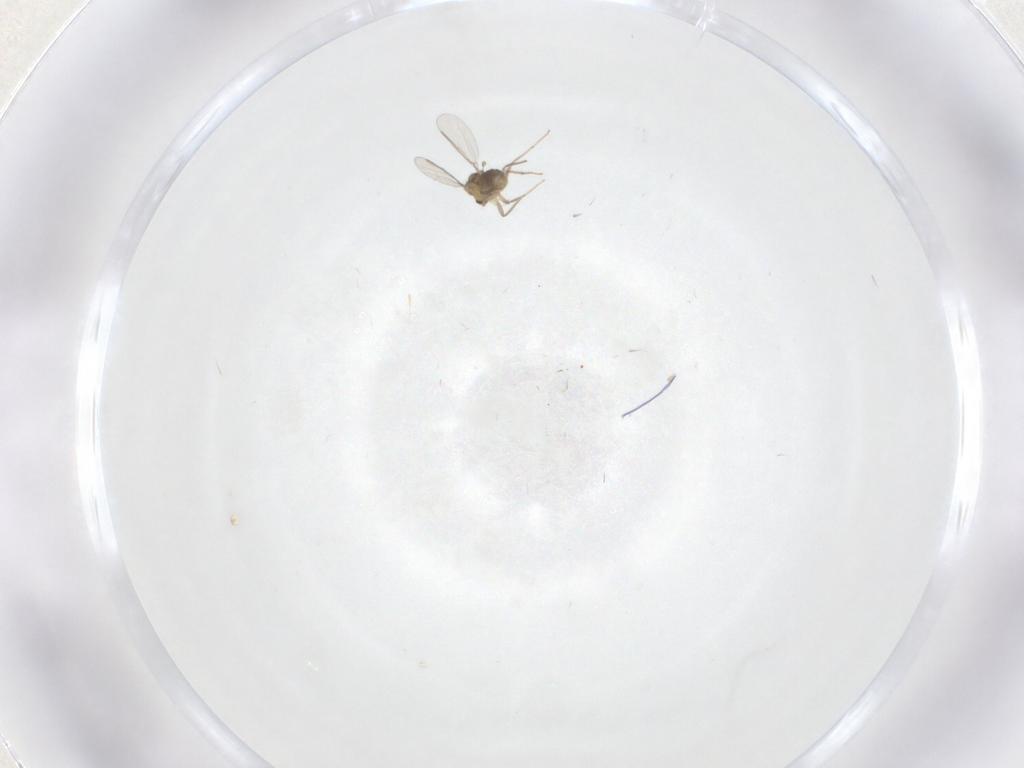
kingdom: Animalia
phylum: Arthropoda
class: Insecta
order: Diptera
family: Chironomidae
